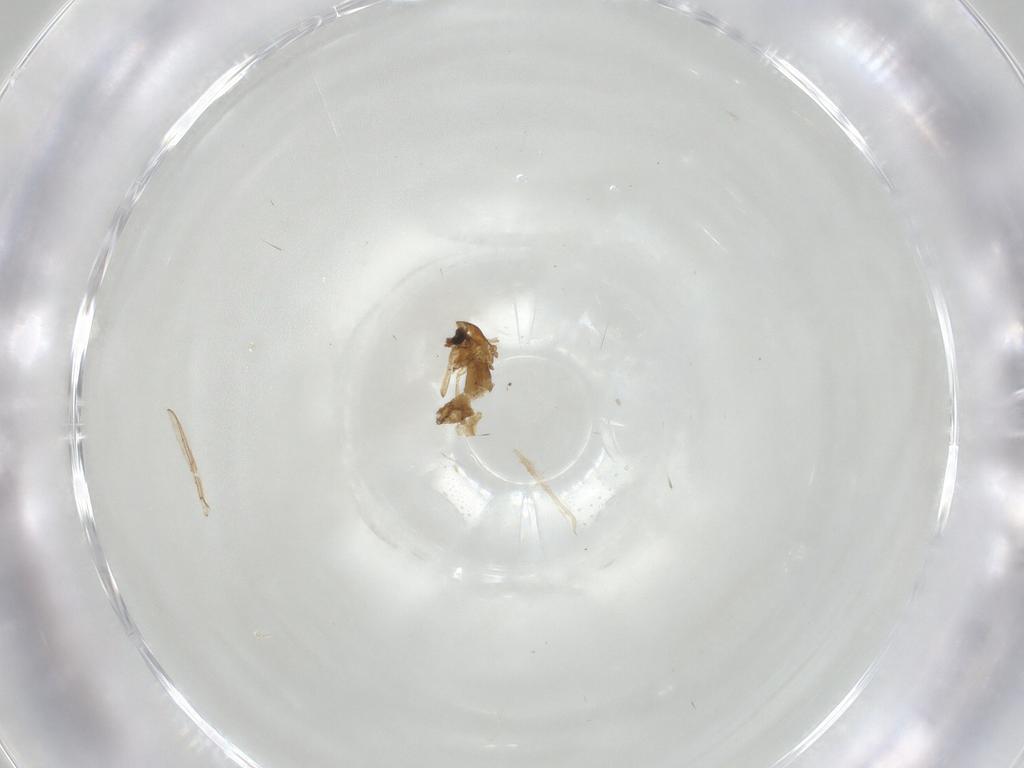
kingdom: Animalia
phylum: Arthropoda
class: Insecta
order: Diptera
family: Chironomidae
